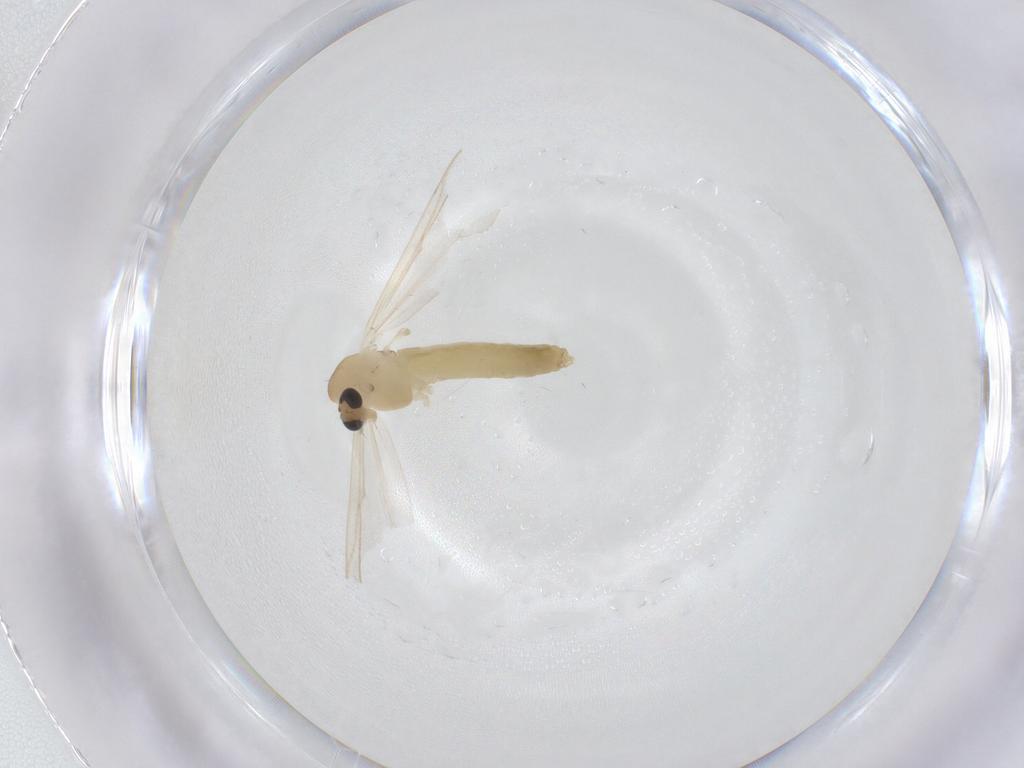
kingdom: Animalia
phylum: Arthropoda
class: Insecta
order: Diptera
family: Chironomidae
